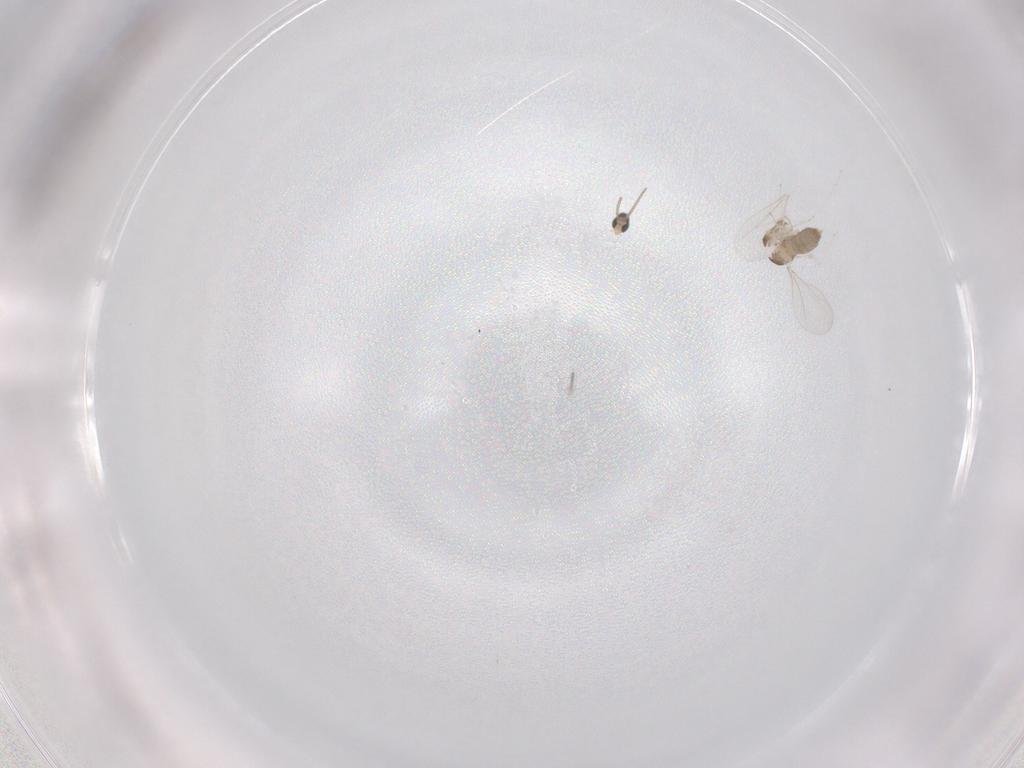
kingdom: Animalia
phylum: Arthropoda
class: Insecta
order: Diptera
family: Cecidomyiidae
